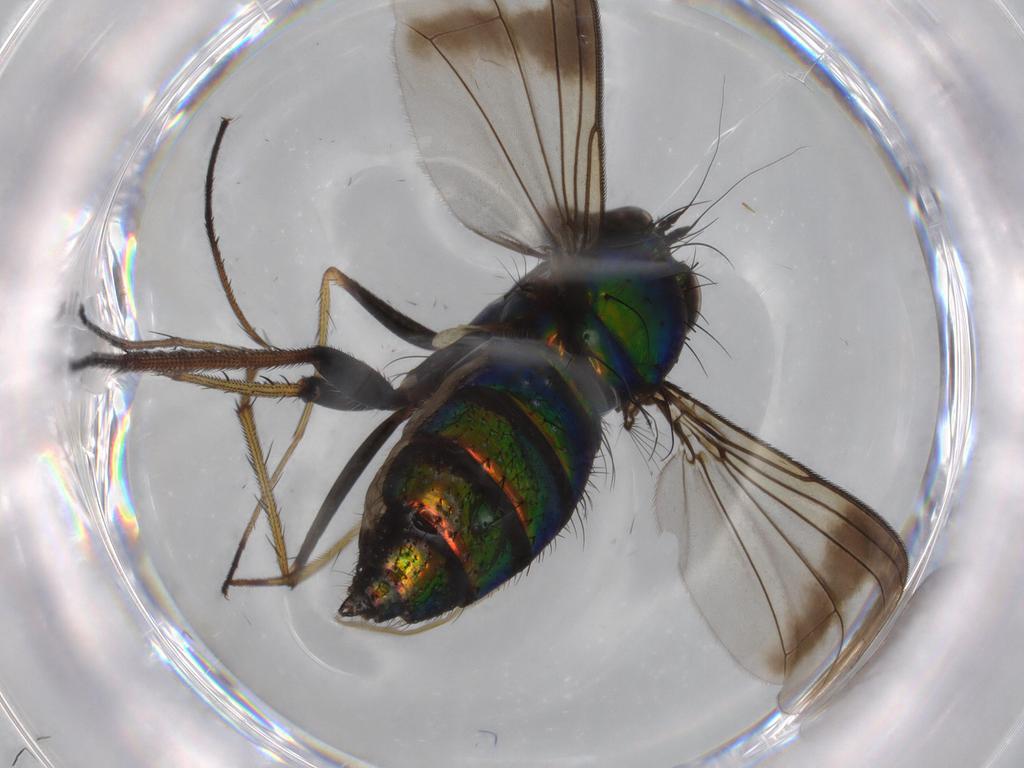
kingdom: Animalia
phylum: Arthropoda
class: Insecta
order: Diptera
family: Dolichopodidae
